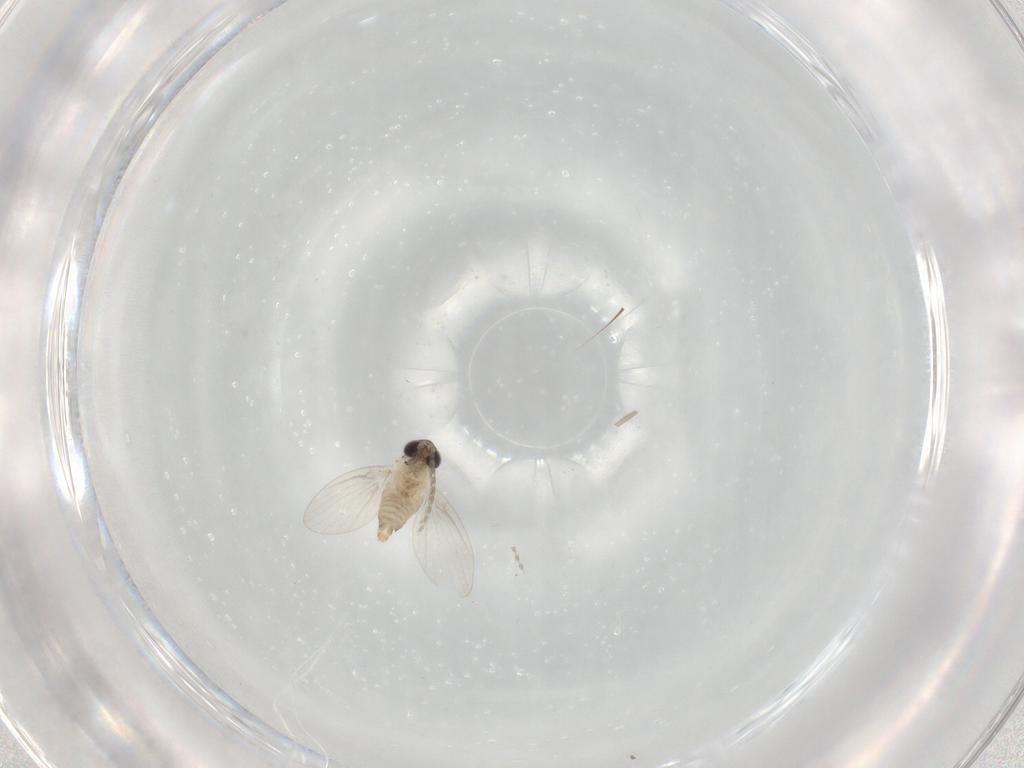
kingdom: Animalia
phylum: Arthropoda
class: Insecta
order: Diptera
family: Psychodidae
